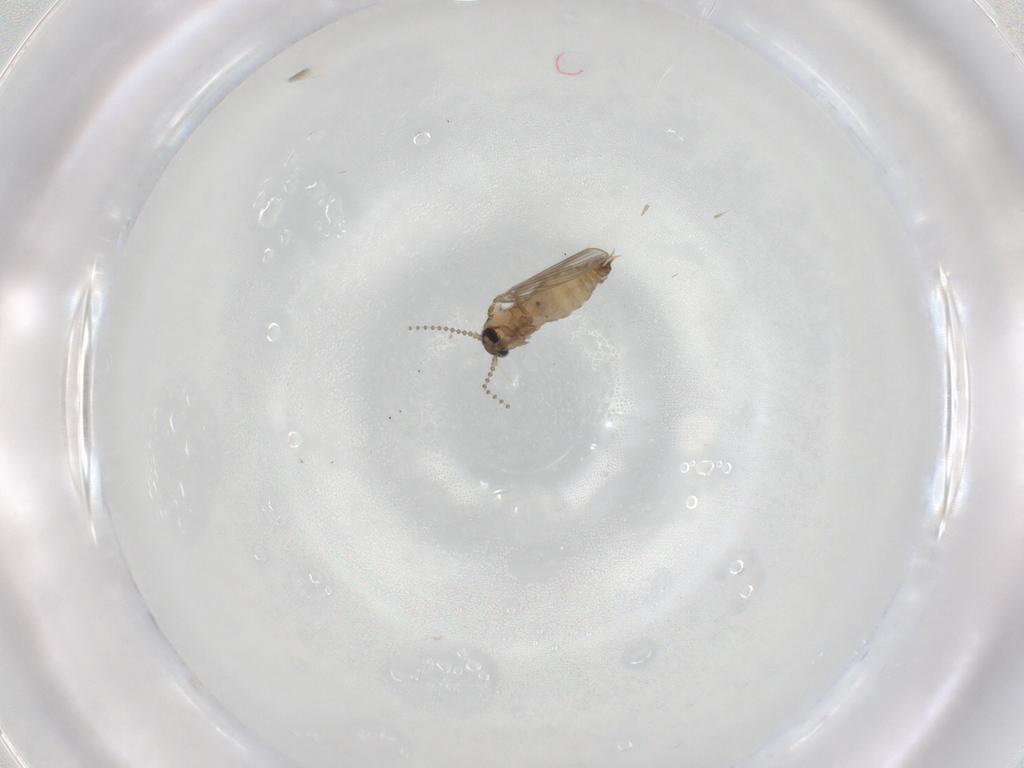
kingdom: Animalia
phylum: Arthropoda
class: Insecta
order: Diptera
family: Psychodidae
